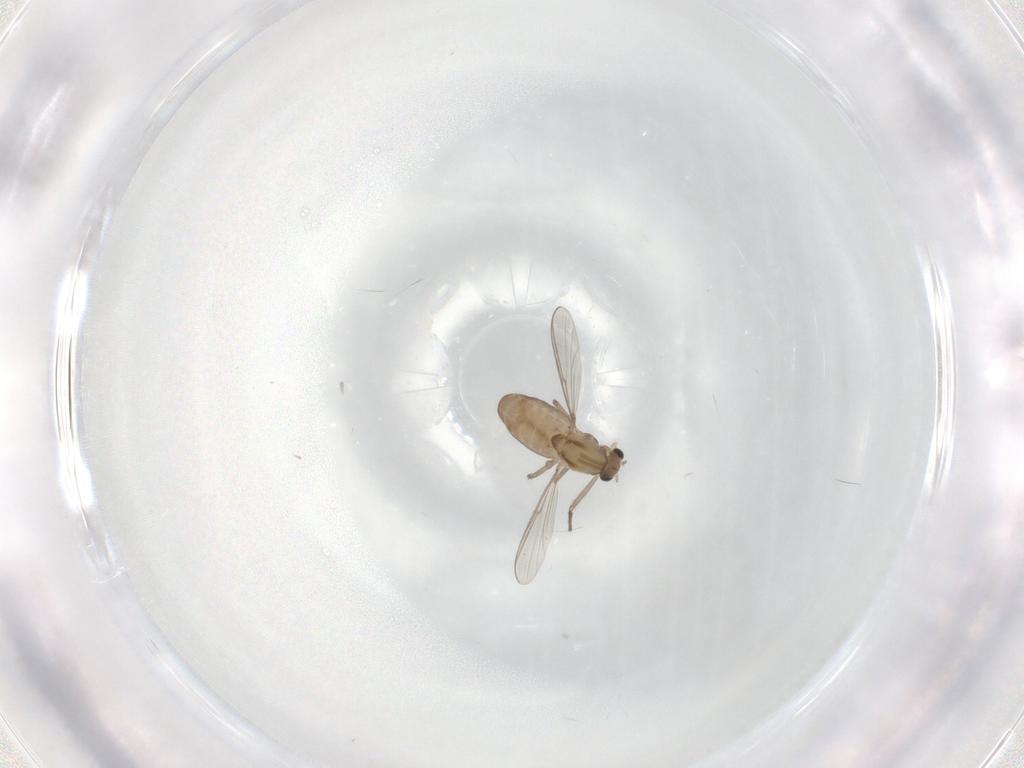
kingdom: Animalia
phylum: Arthropoda
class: Insecta
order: Diptera
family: Chironomidae
